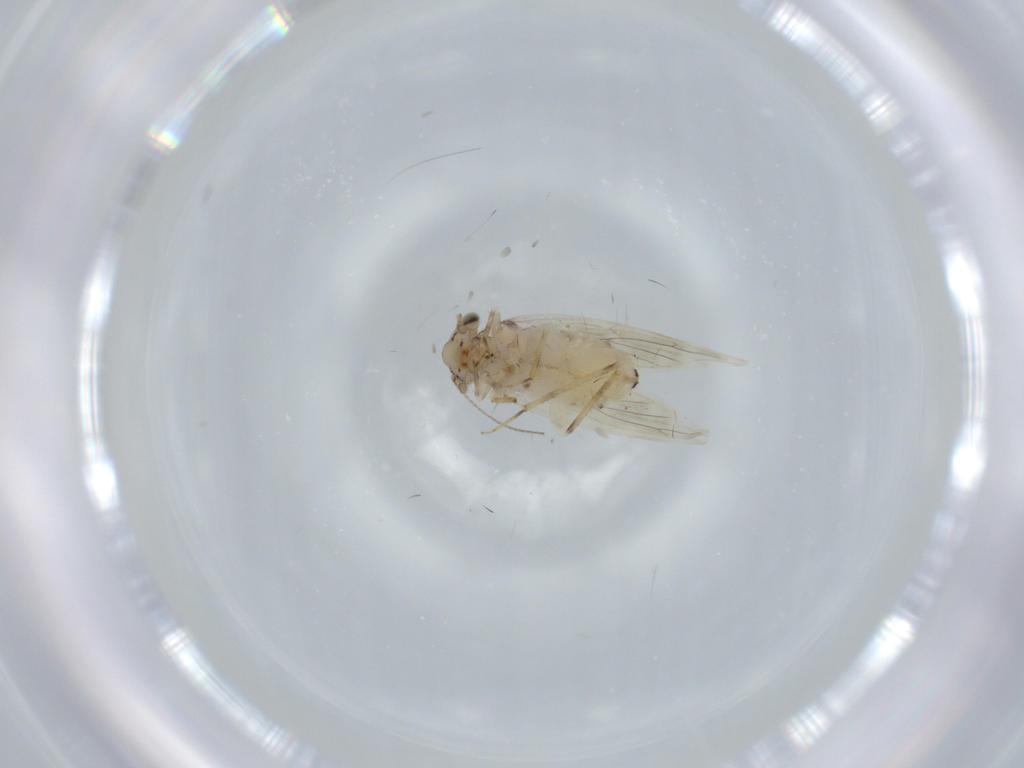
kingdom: Animalia
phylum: Arthropoda
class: Insecta
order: Psocodea
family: Lepidopsocidae
